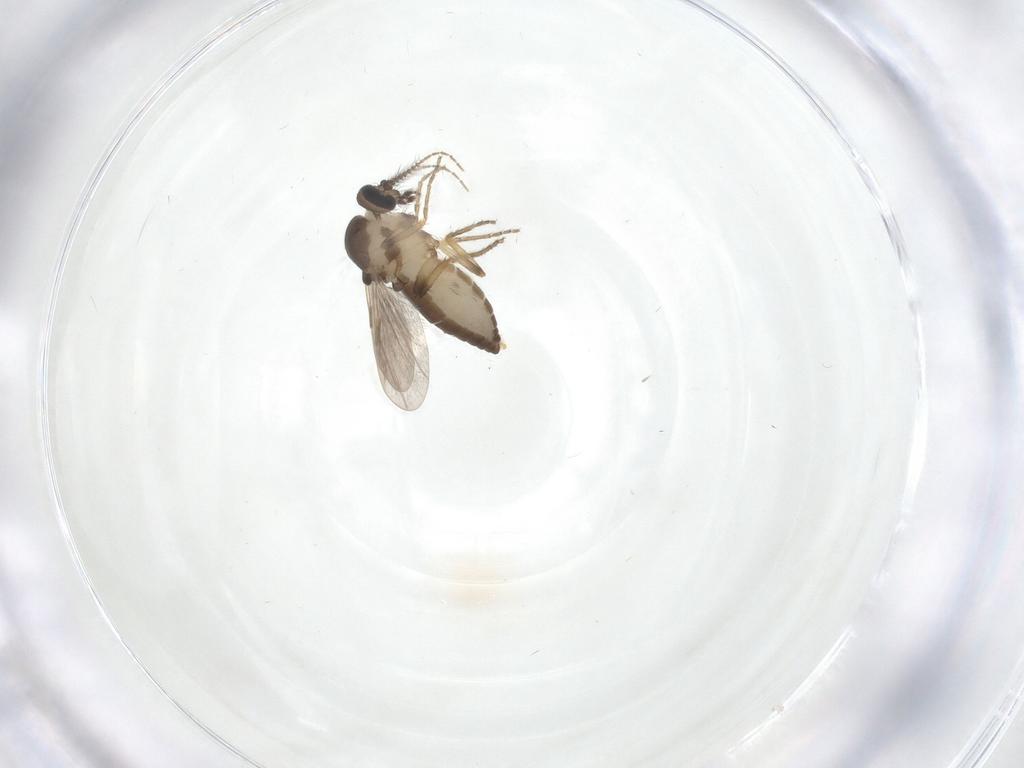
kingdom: Animalia
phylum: Arthropoda
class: Insecta
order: Diptera
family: Ceratopogonidae
